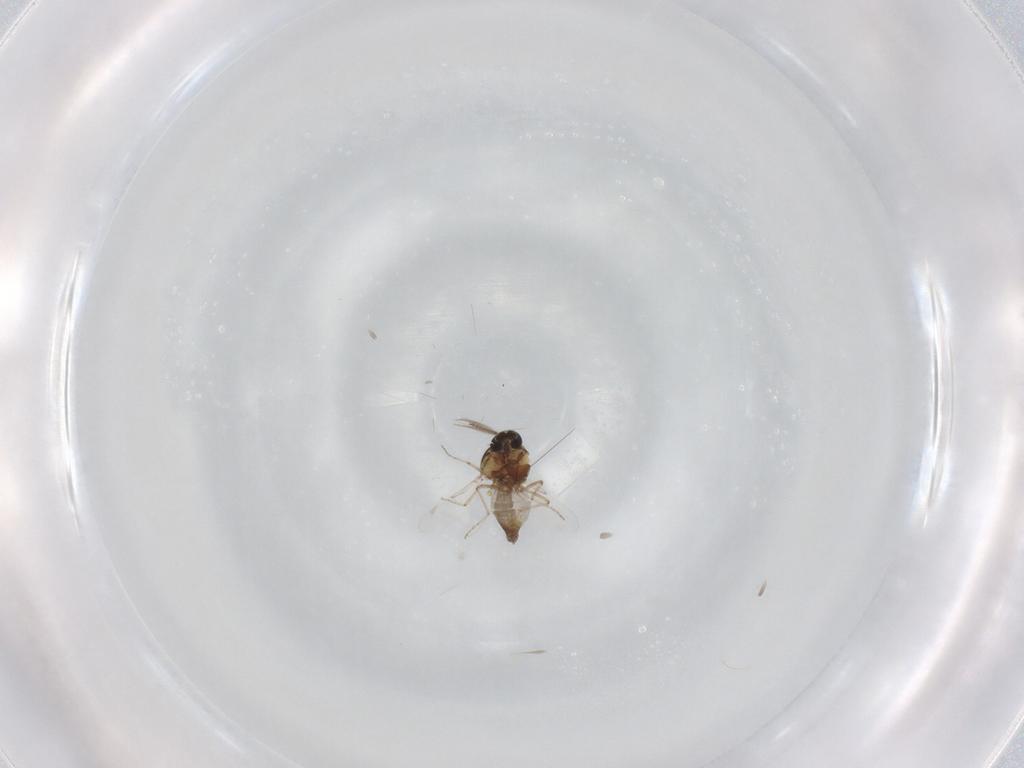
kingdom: Animalia
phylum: Arthropoda
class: Insecta
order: Diptera
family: Ceratopogonidae
